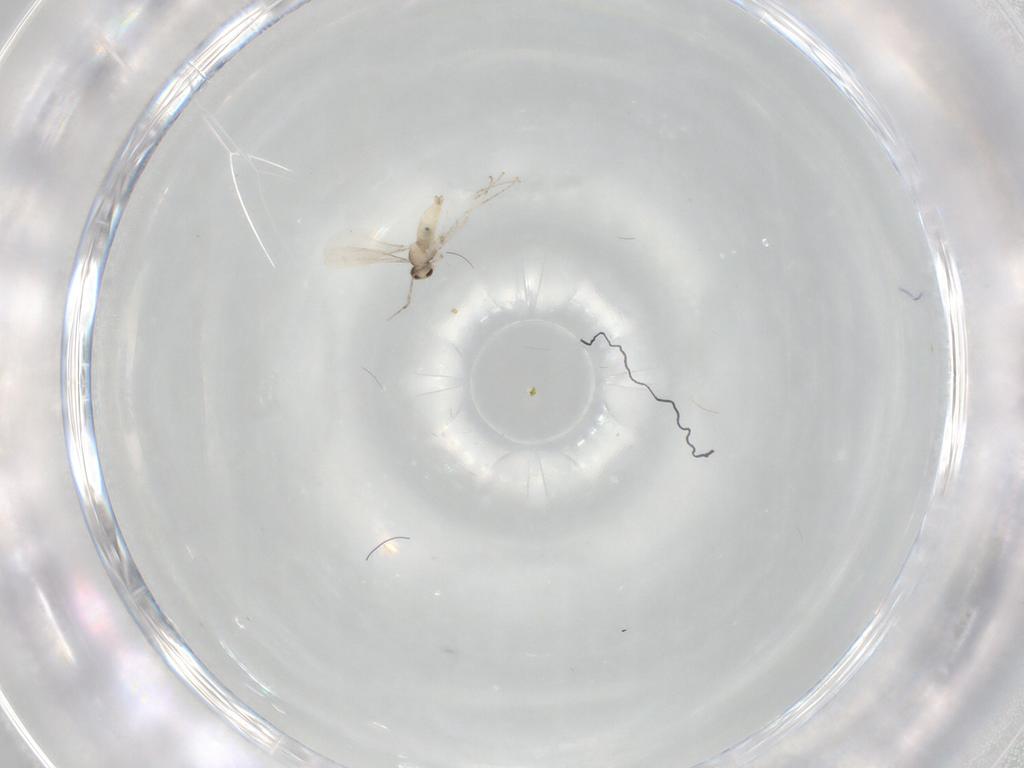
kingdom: Animalia
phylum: Arthropoda
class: Insecta
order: Diptera
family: Cecidomyiidae
